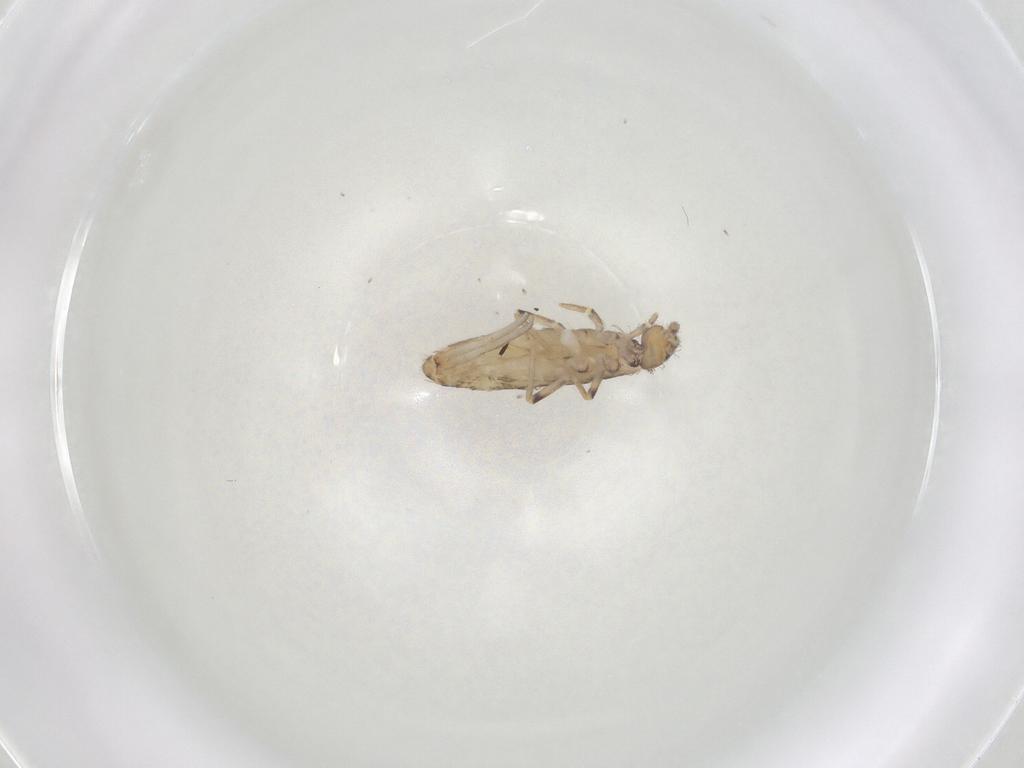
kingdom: Animalia
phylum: Arthropoda
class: Collembola
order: Entomobryomorpha
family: Entomobryidae
